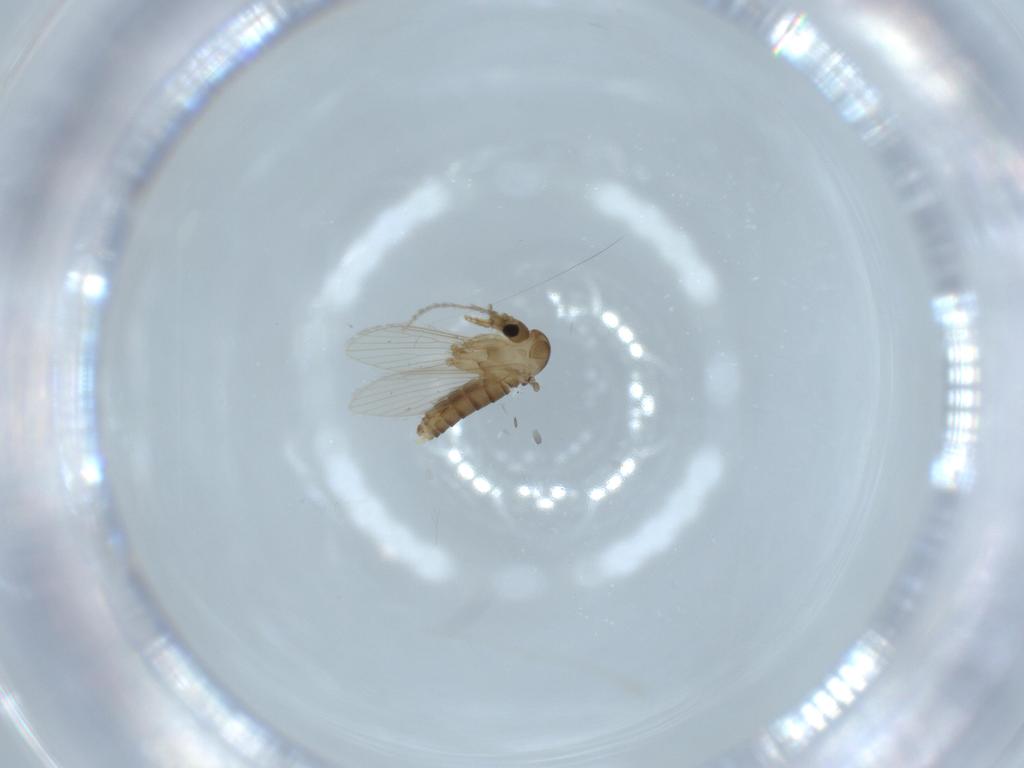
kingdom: Animalia
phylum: Arthropoda
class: Insecta
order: Diptera
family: Psychodidae
